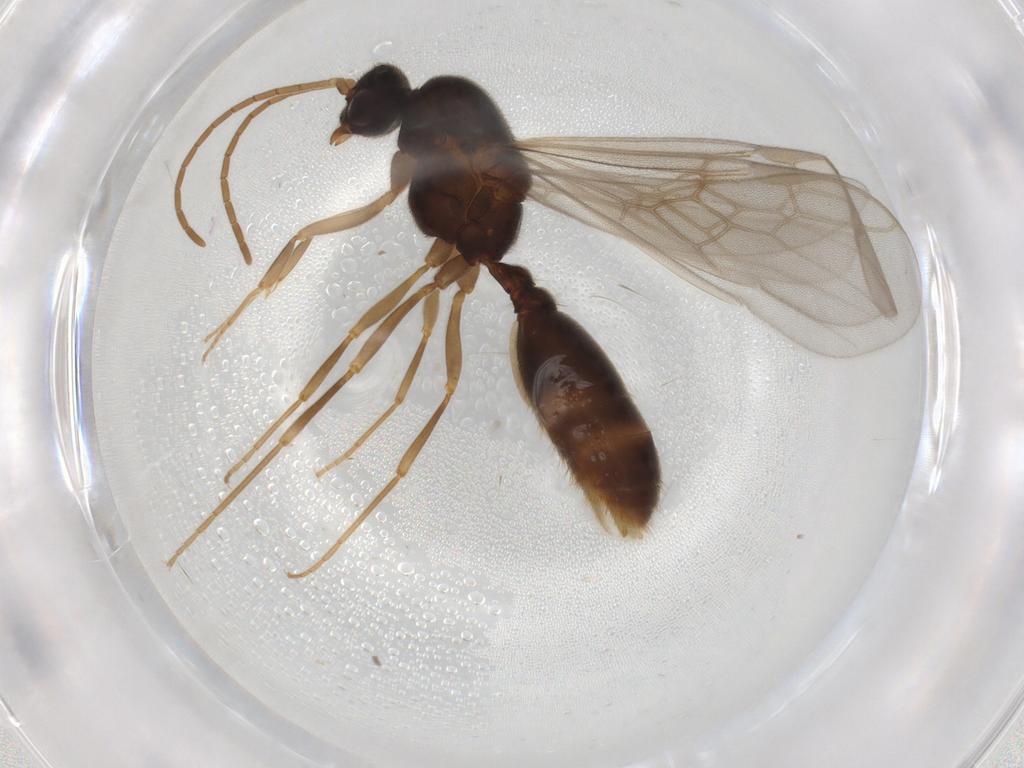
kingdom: Animalia
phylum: Arthropoda
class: Insecta
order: Hymenoptera
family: Formicidae
